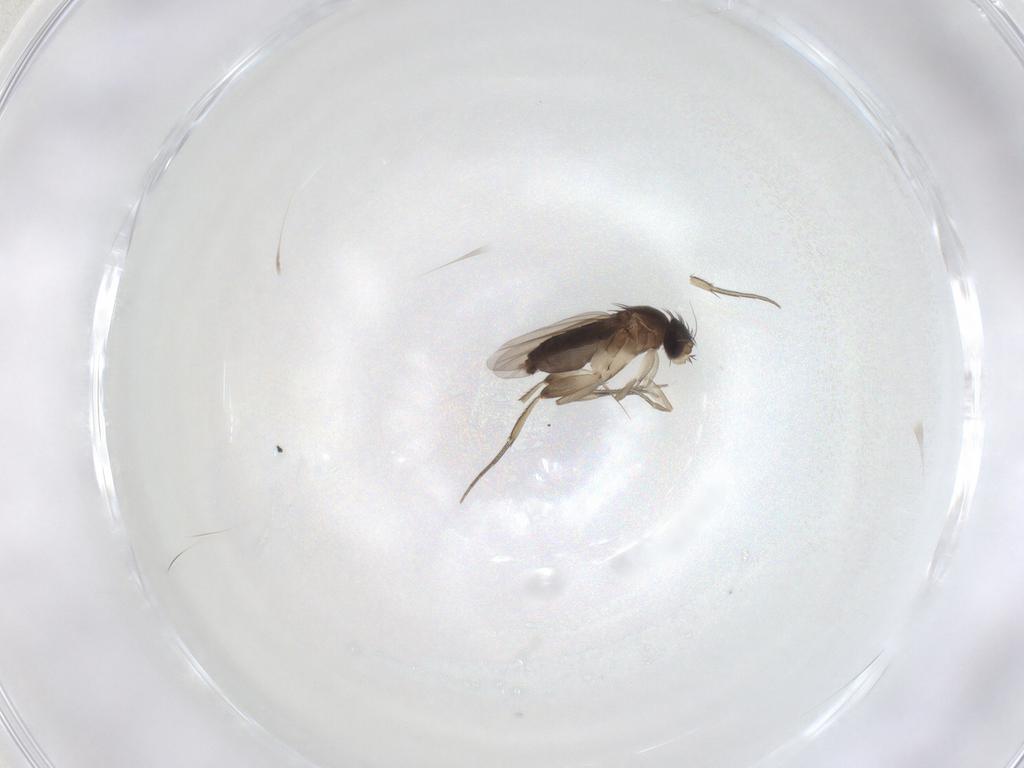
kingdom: Animalia
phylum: Arthropoda
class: Insecta
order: Diptera
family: Phoridae
